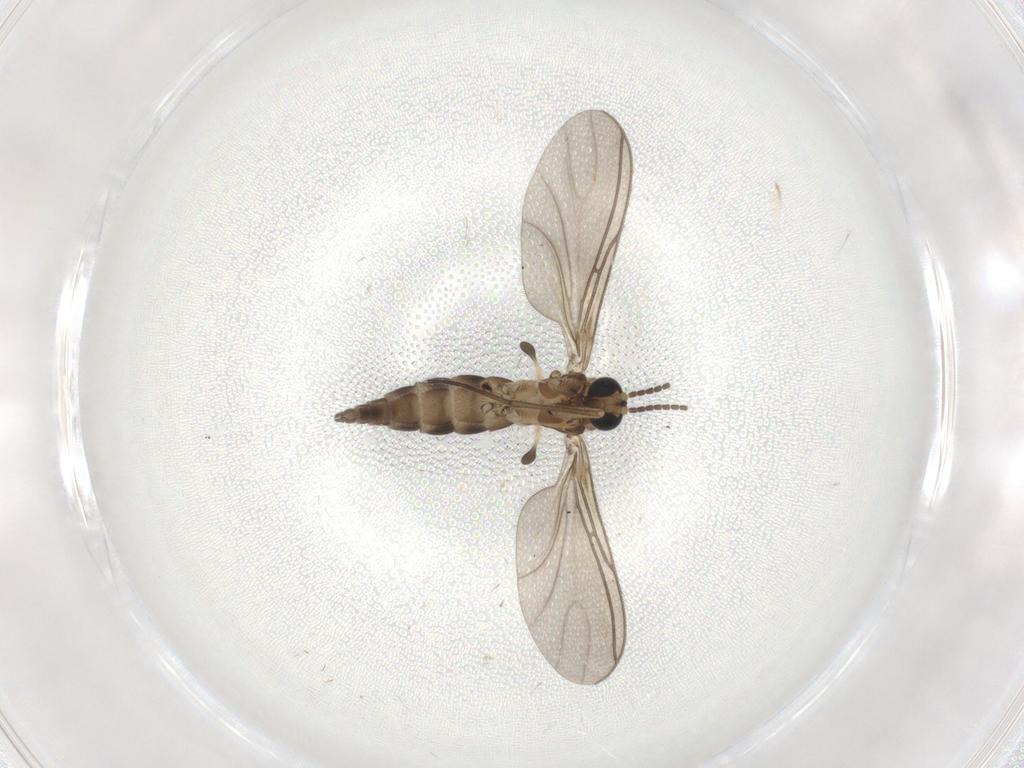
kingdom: Animalia
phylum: Arthropoda
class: Insecta
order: Diptera
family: Sciaridae
